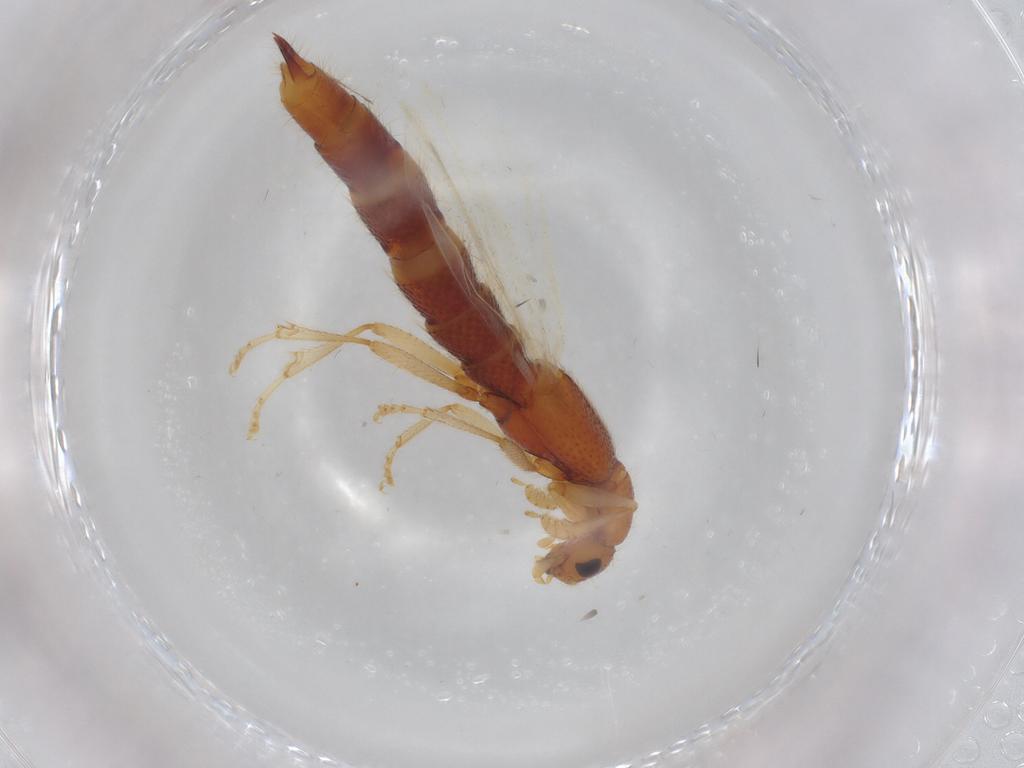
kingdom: Animalia
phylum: Arthropoda
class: Insecta
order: Coleoptera
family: Staphylinidae
